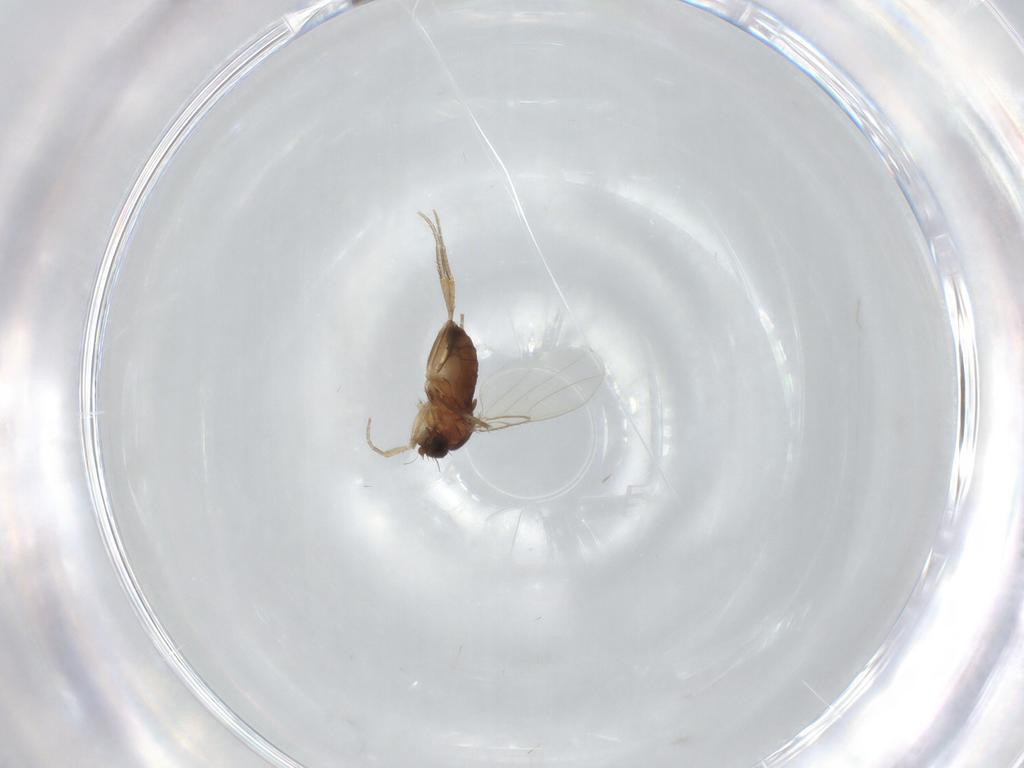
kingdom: Animalia
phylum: Arthropoda
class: Insecta
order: Diptera
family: Phoridae
